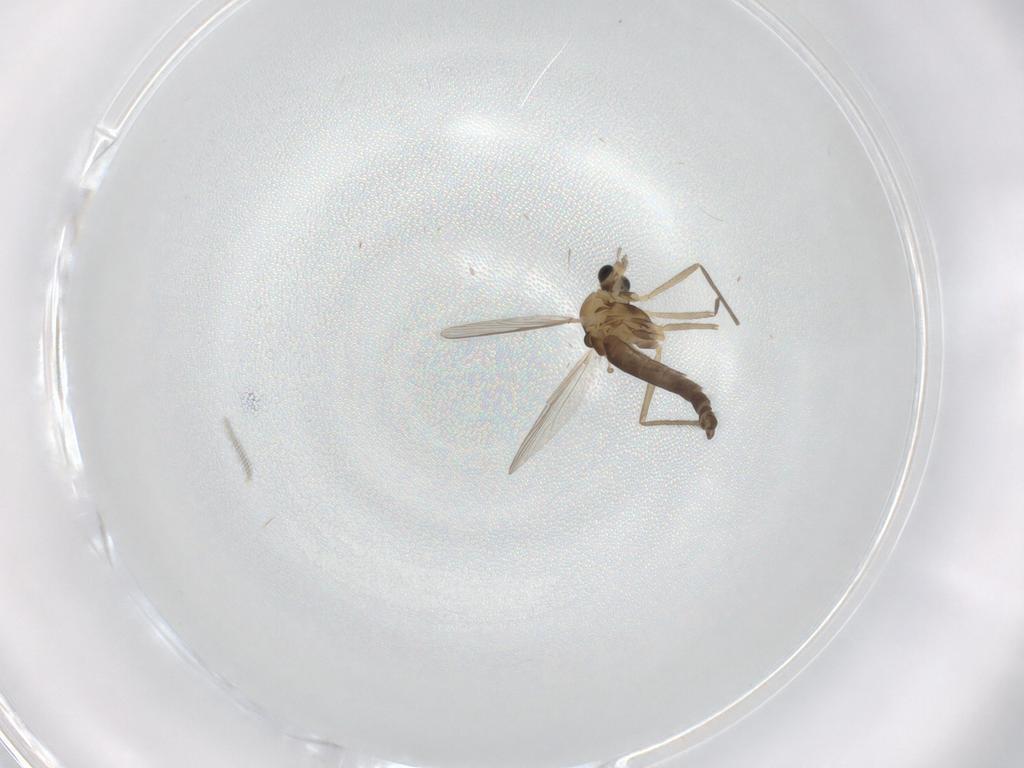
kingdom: Animalia
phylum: Arthropoda
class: Insecta
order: Diptera
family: Chironomidae
